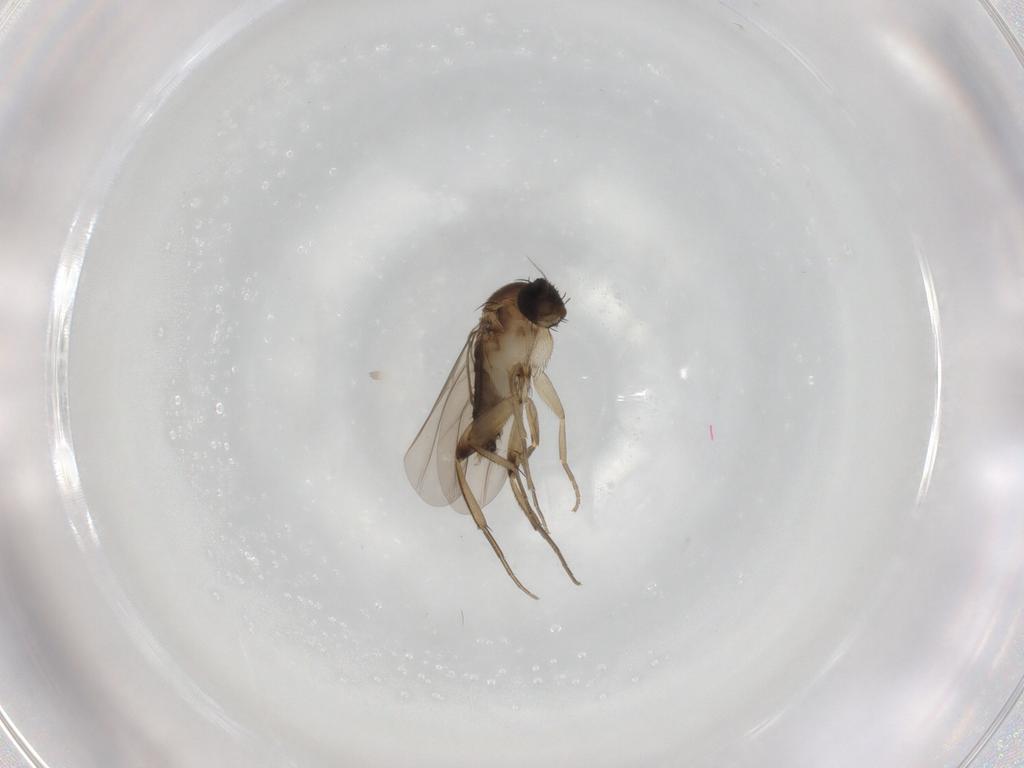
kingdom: Animalia
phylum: Arthropoda
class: Insecta
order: Diptera
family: Phoridae
